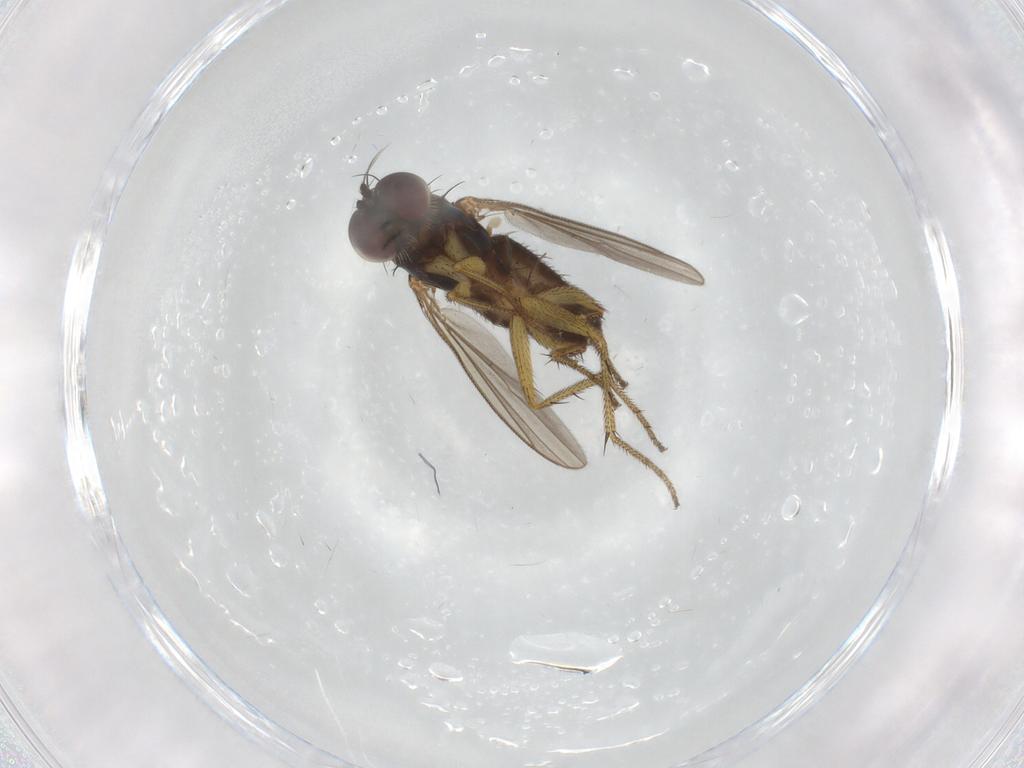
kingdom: Animalia
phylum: Arthropoda
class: Insecta
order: Diptera
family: Dolichopodidae
